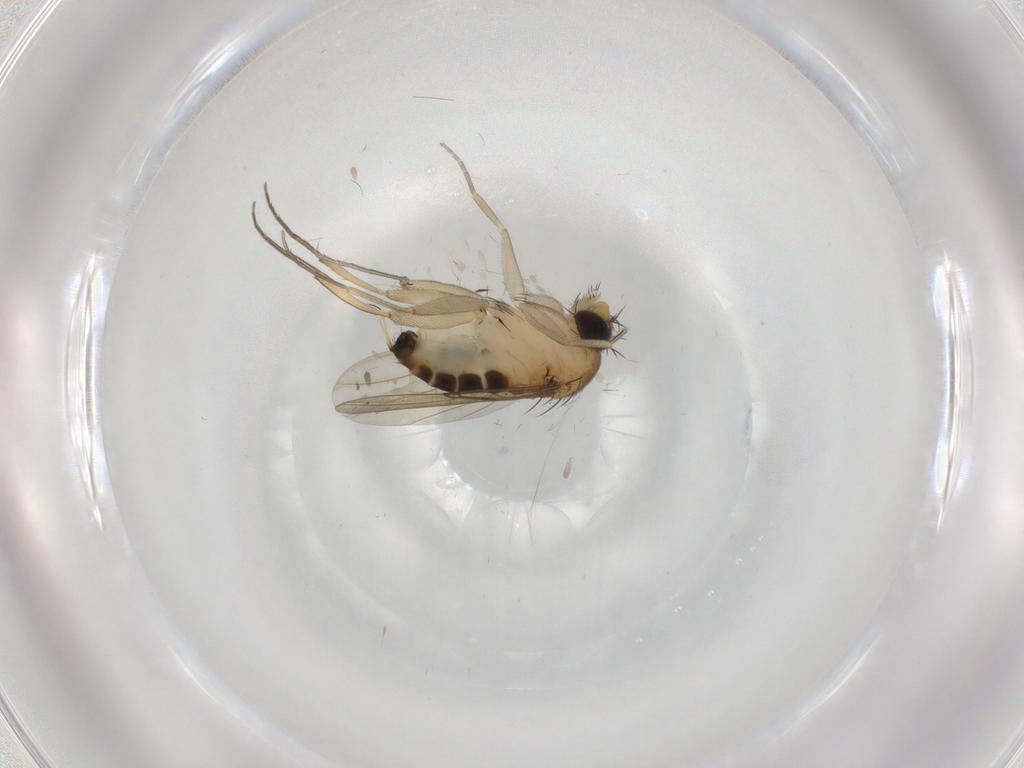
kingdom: Animalia
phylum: Arthropoda
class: Insecta
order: Diptera
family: Phoridae
